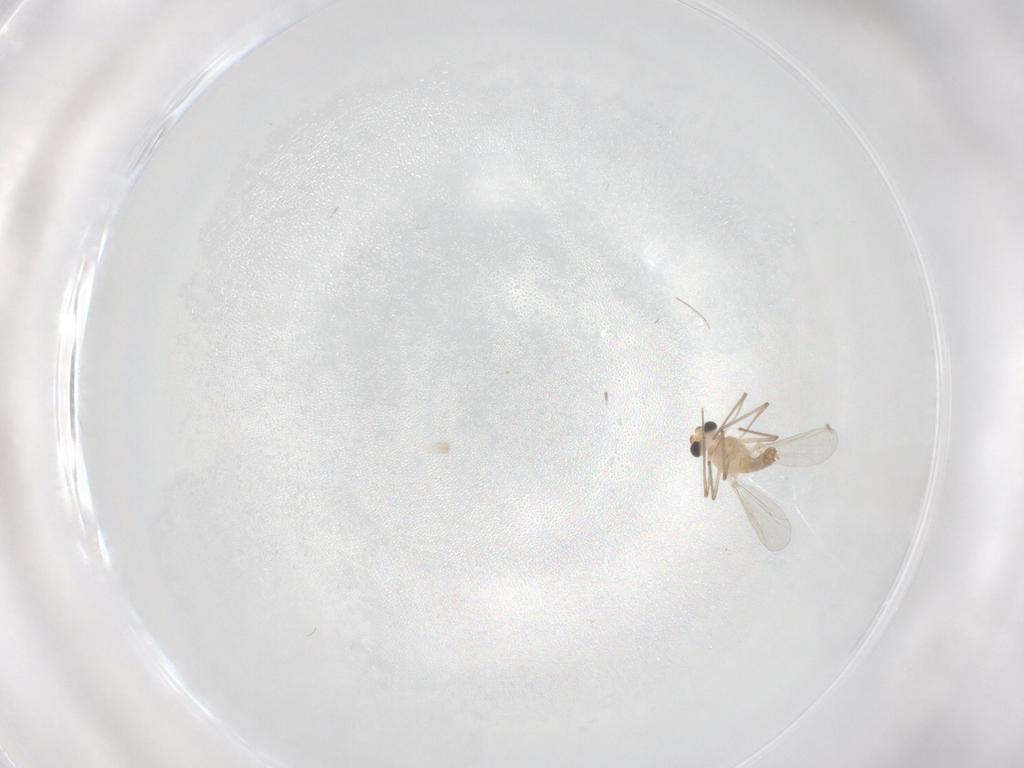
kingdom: Animalia
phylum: Arthropoda
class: Insecta
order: Diptera
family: Chironomidae
